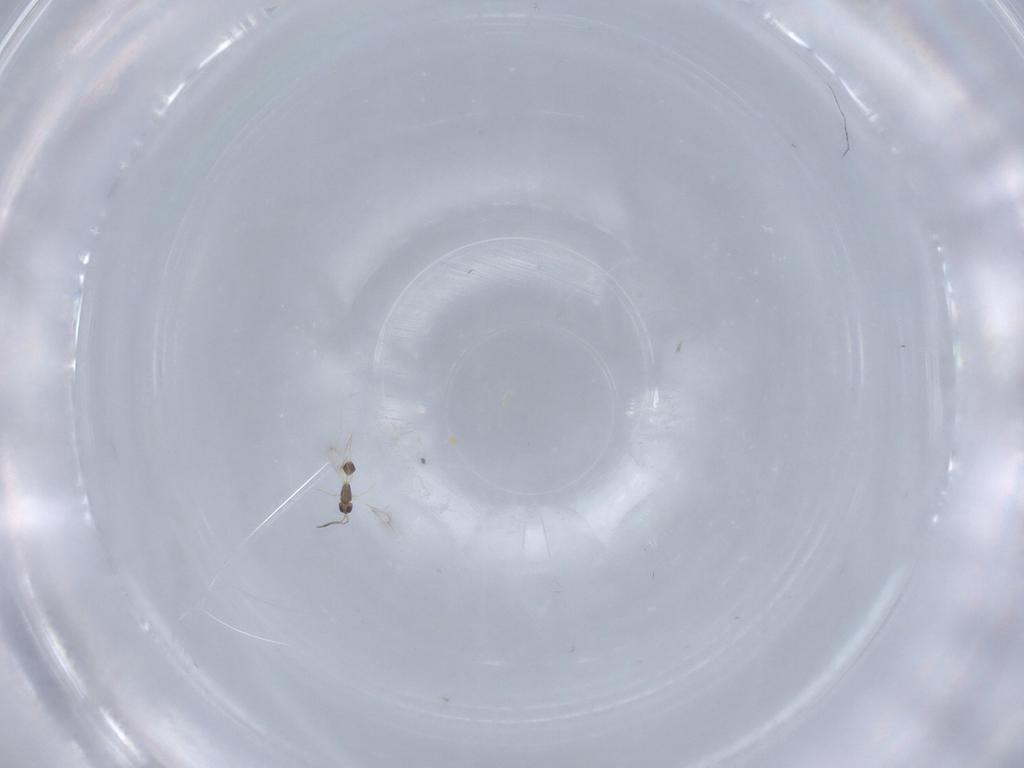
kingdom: Animalia
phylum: Arthropoda
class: Insecta
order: Hymenoptera
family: Mymarommatidae
